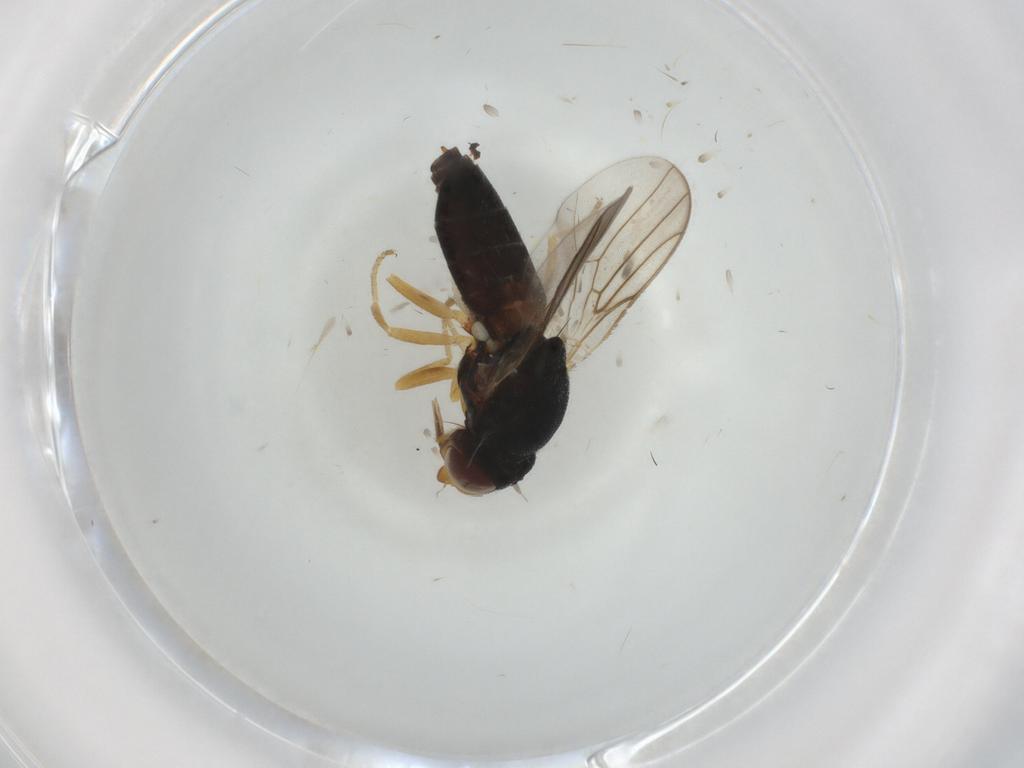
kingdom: Animalia
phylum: Arthropoda
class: Insecta
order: Diptera
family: Chloropidae
